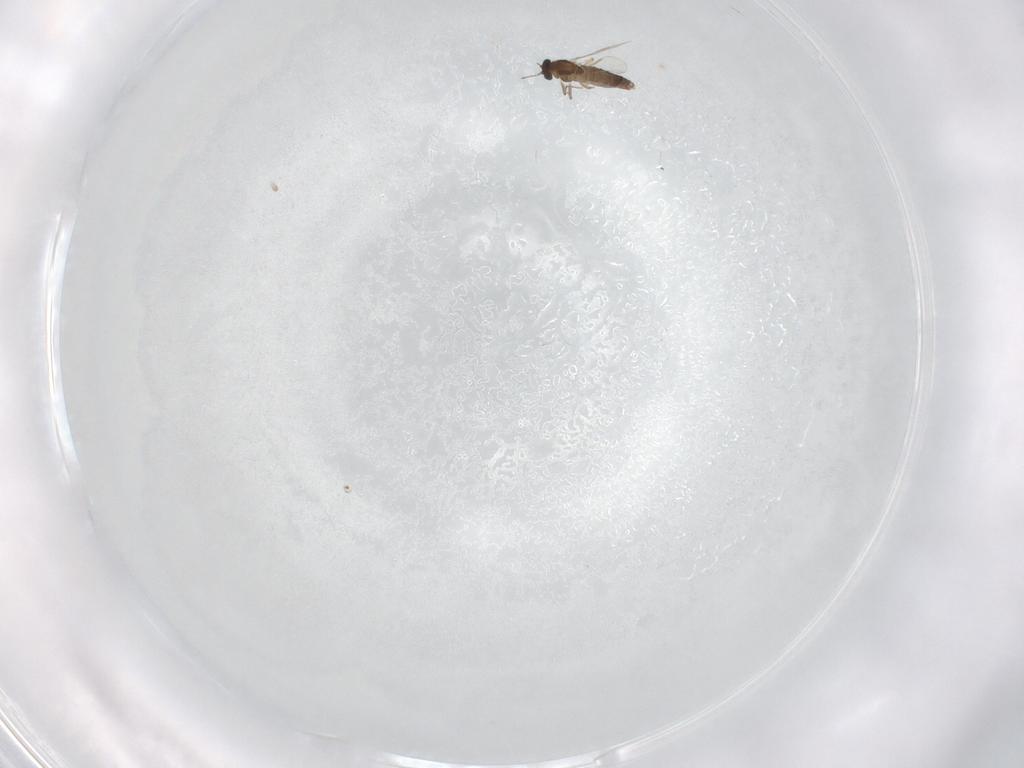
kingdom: Animalia
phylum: Arthropoda
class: Insecta
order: Diptera
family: Chironomidae
